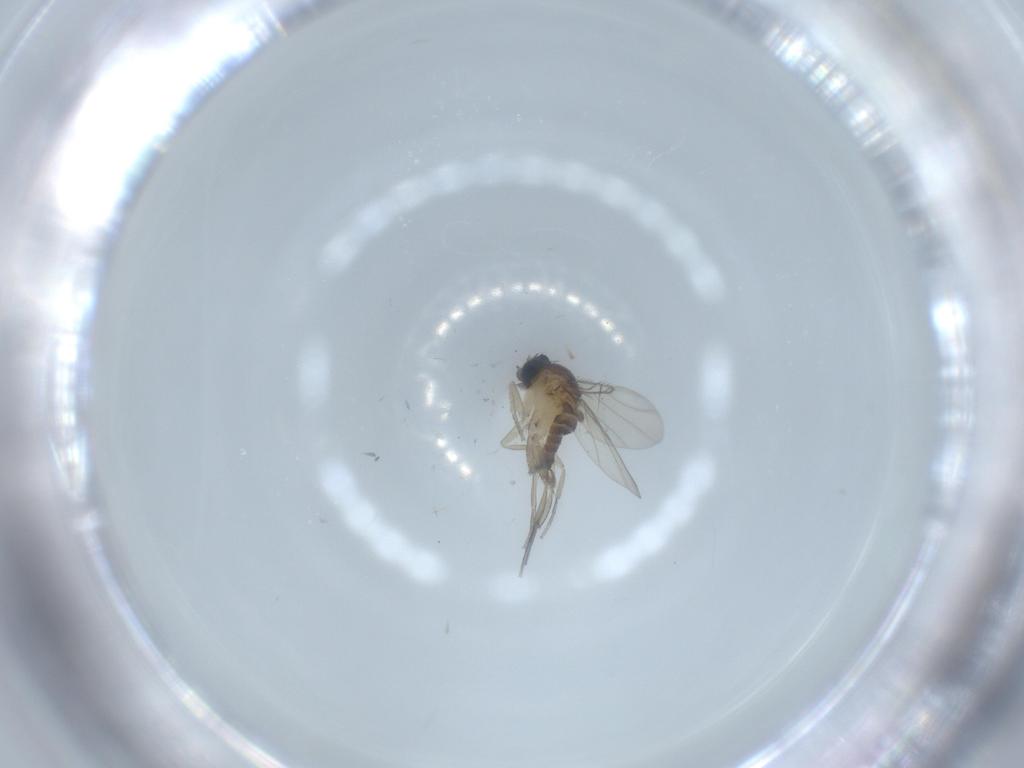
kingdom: Animalia
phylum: Arthropoda
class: Insecta
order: Diptera
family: Phoridae
